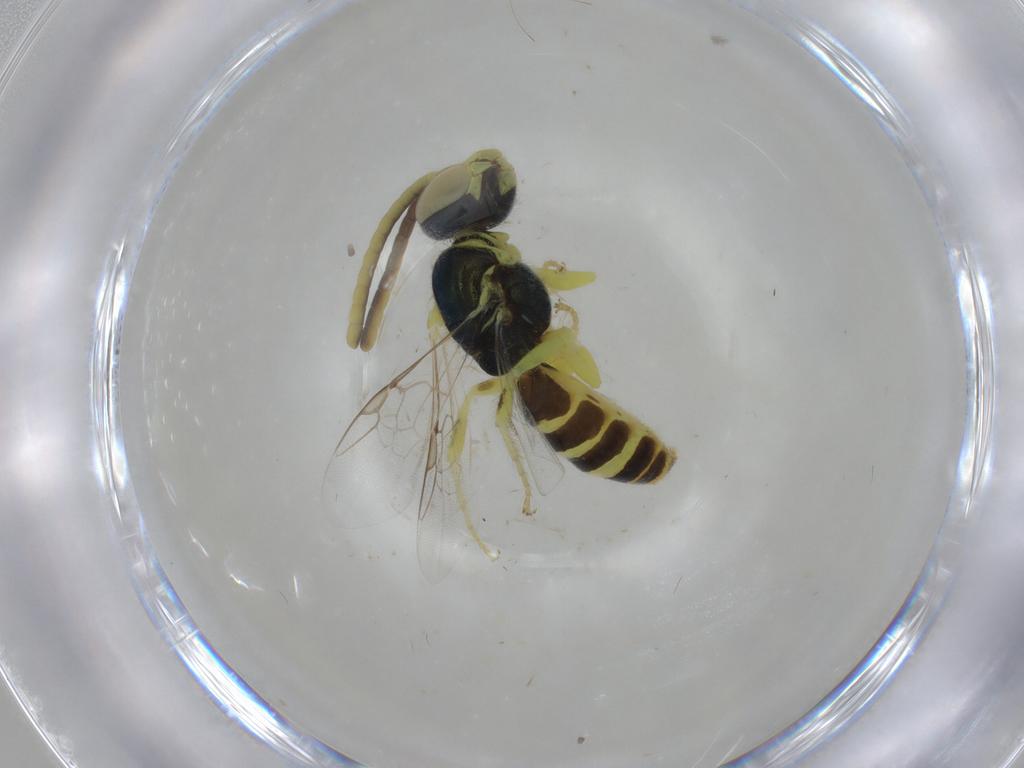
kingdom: Animalia
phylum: Arthropoda
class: Insecta
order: Hymenoptera
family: Halictidae
